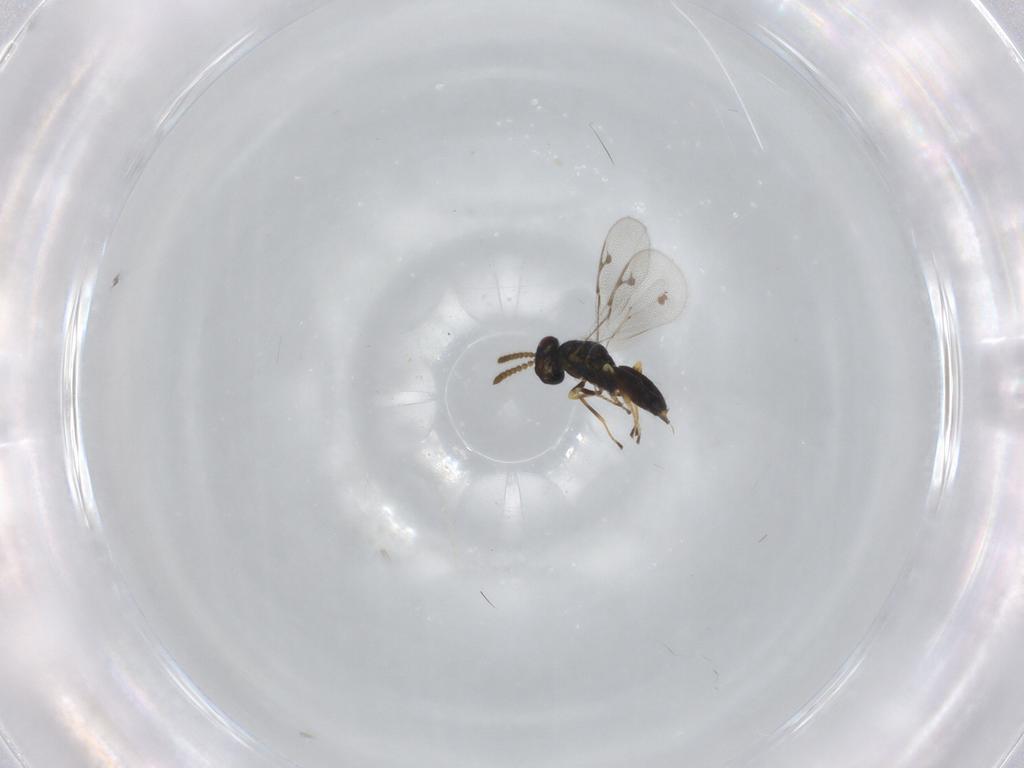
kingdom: Animalia
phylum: Arthropoda
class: Insecta
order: Hymenoptera
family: Pirenidae
